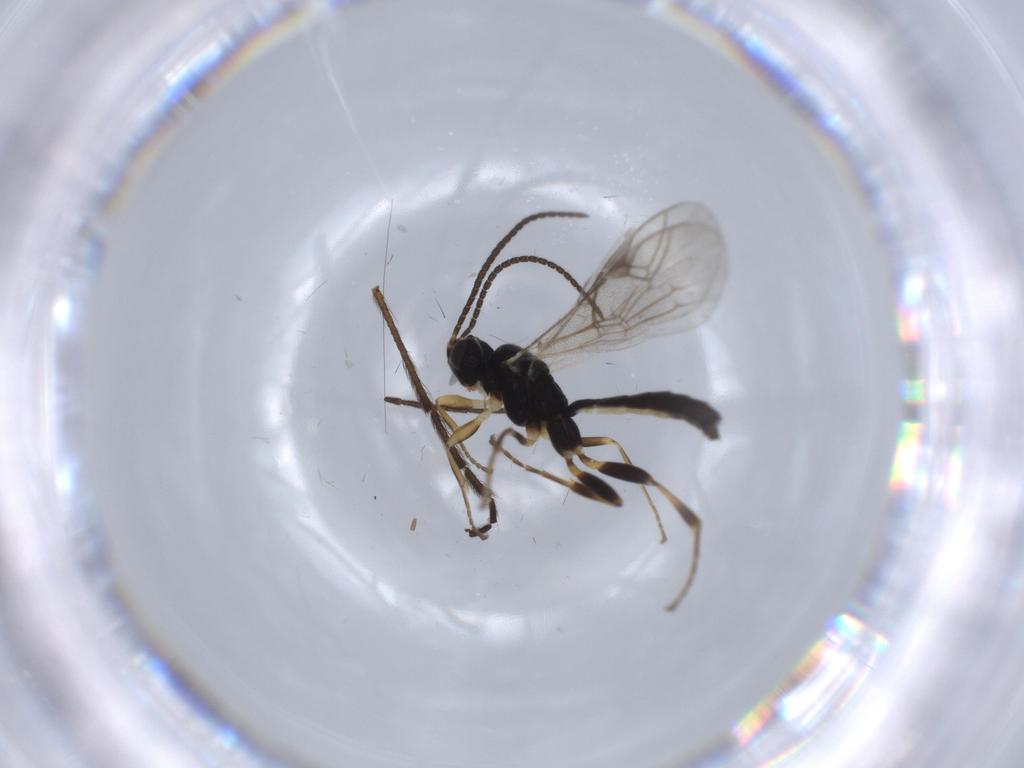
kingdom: Animalia
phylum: Arthropoda
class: Insecta
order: Hymenoptera
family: Ichneumonidae
